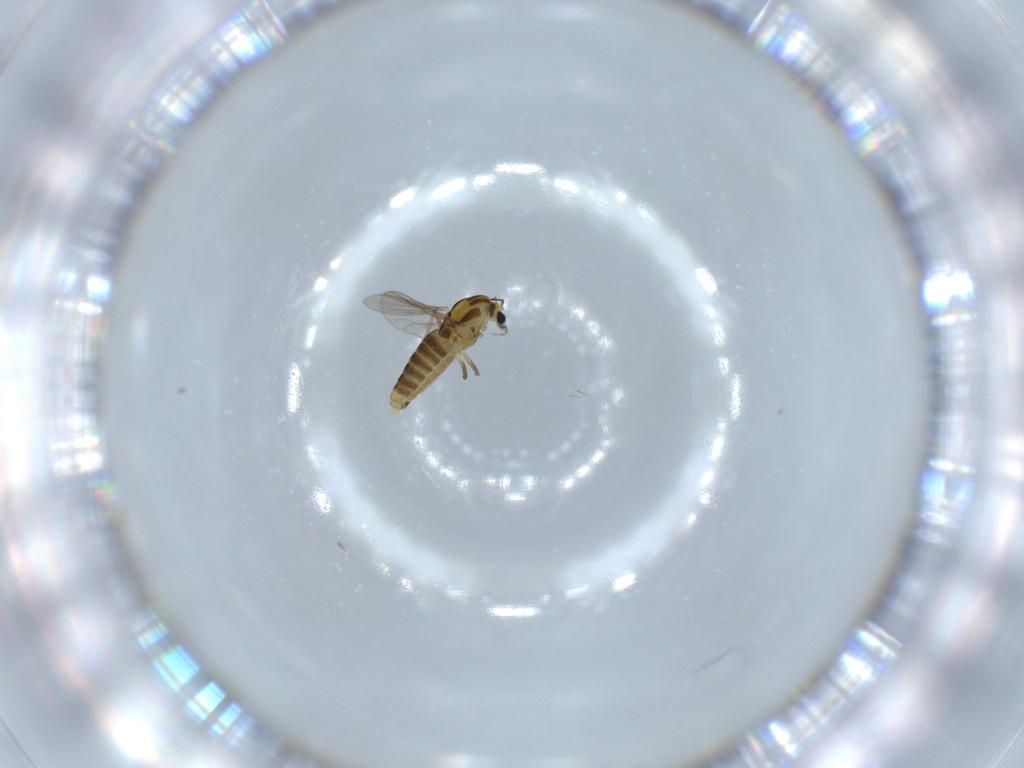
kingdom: Animalia
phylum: Arthropoda
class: Insecta
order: Diptera
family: Chironomidae
